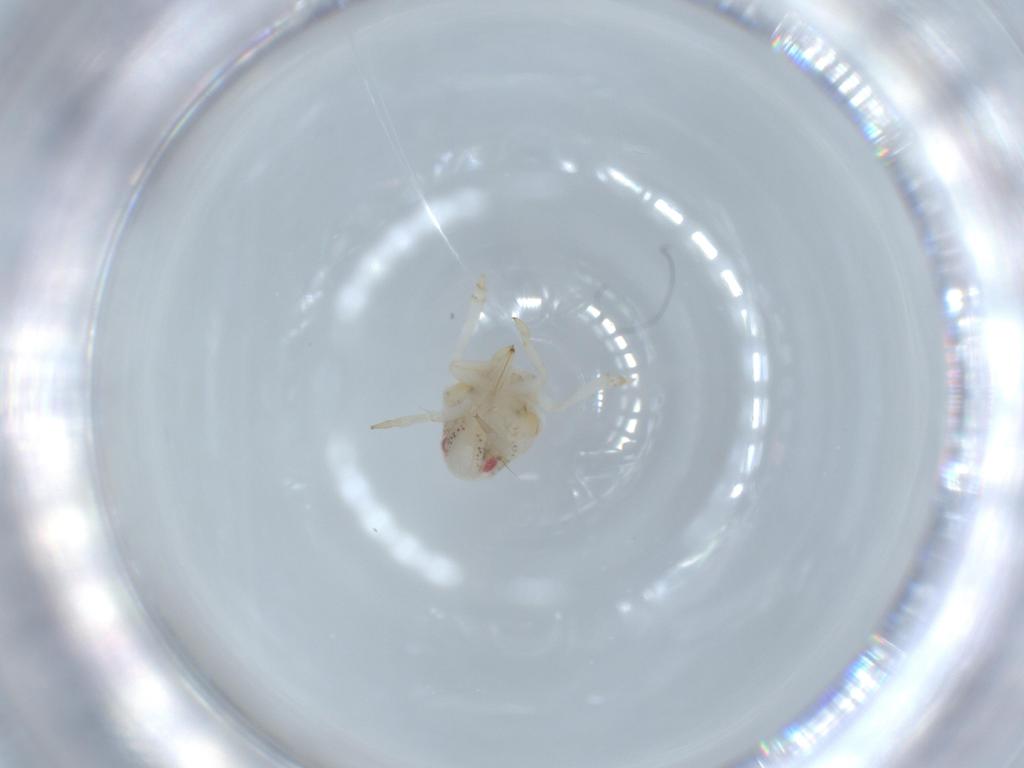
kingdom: Animalia
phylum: Arthropoda
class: Insecta
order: Hemiptera
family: Acanaloniidae
